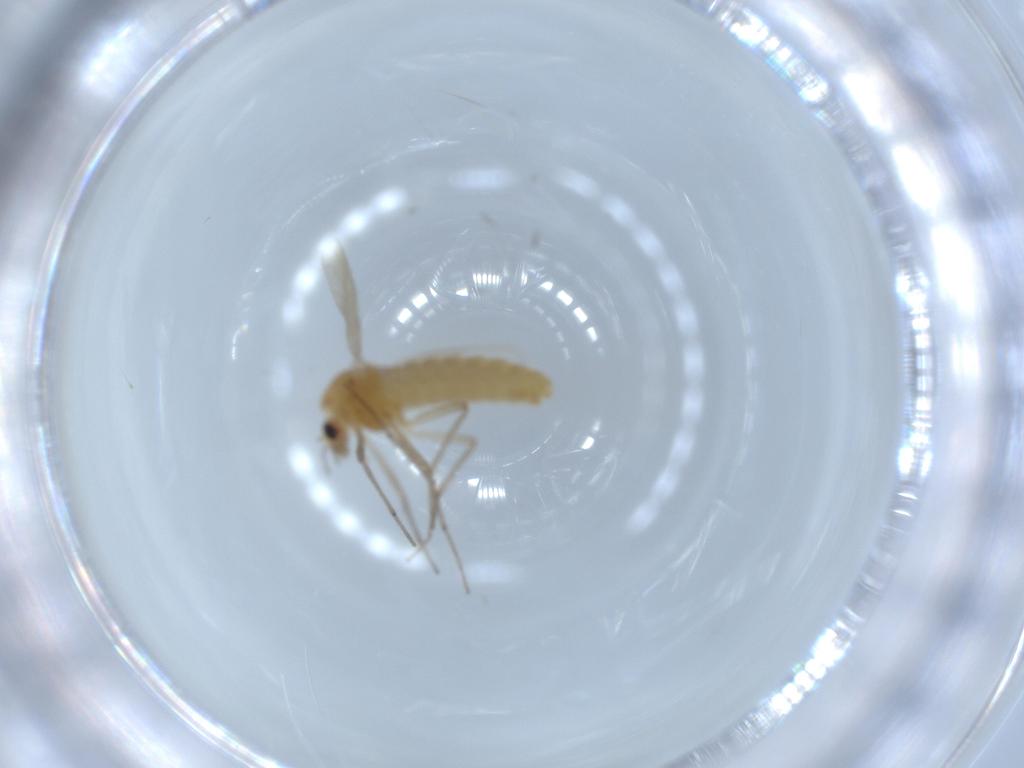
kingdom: Animalia
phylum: Arthropoda
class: Insecta
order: Diptera
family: Chironomidae
